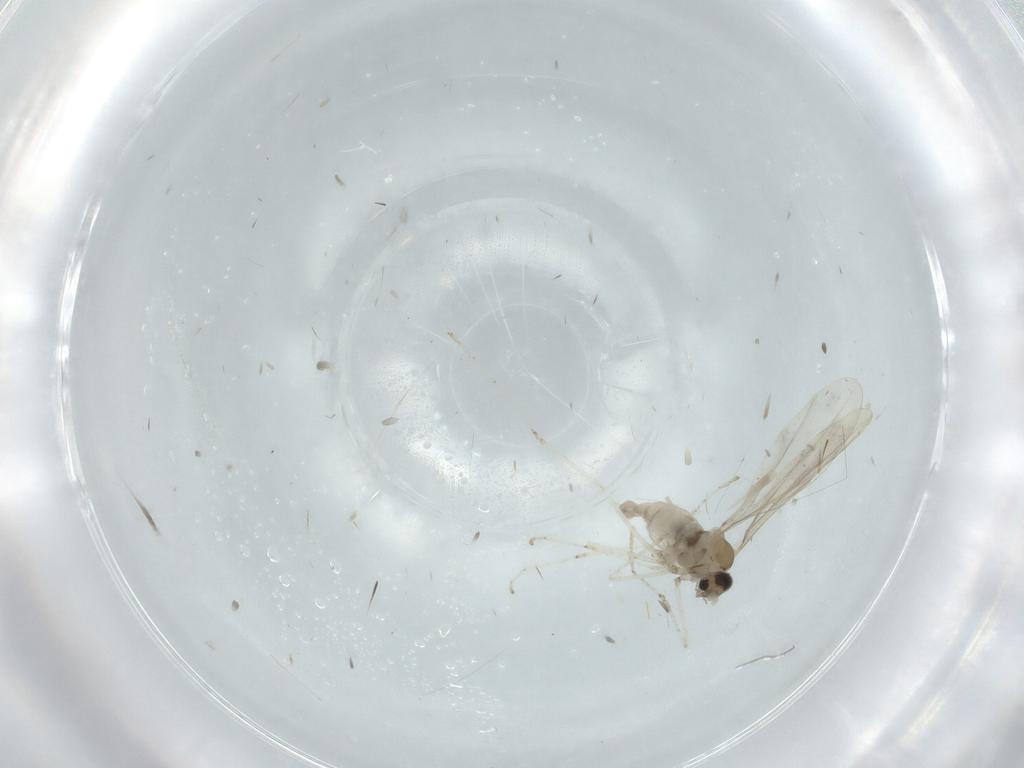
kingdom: Animalia
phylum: Arthropoda
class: Insecta
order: Diptera
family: Cecidomyiidae
